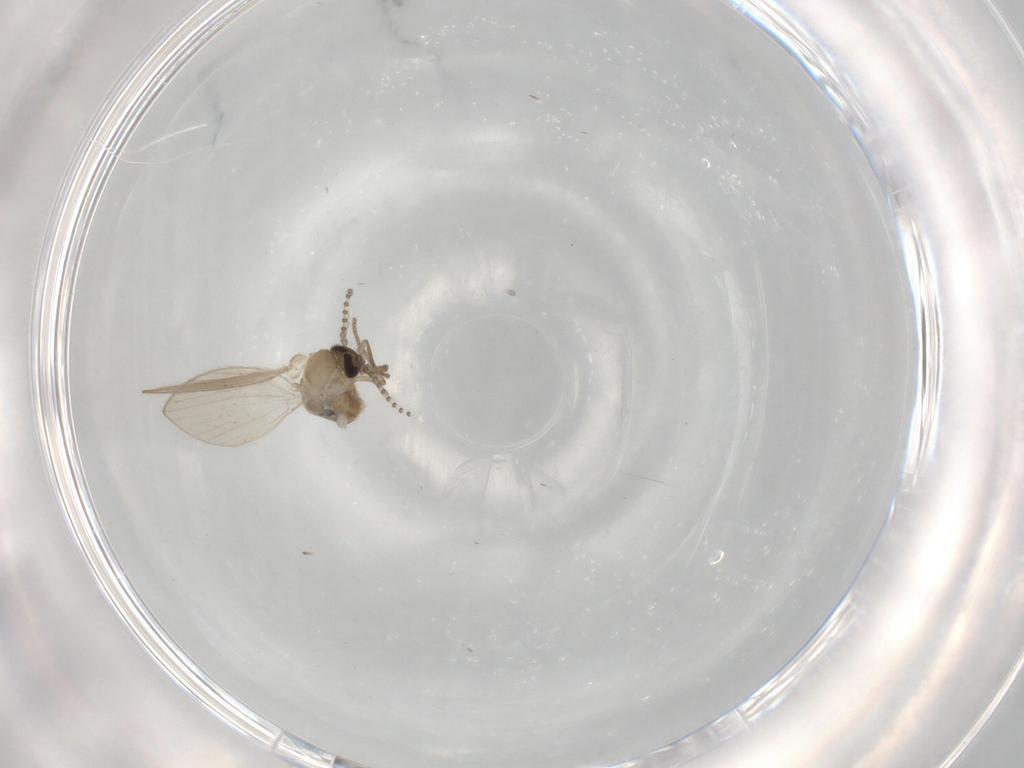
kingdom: Animalia
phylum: Arthropoda
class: Insecta
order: Diptera
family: Psychodidae
